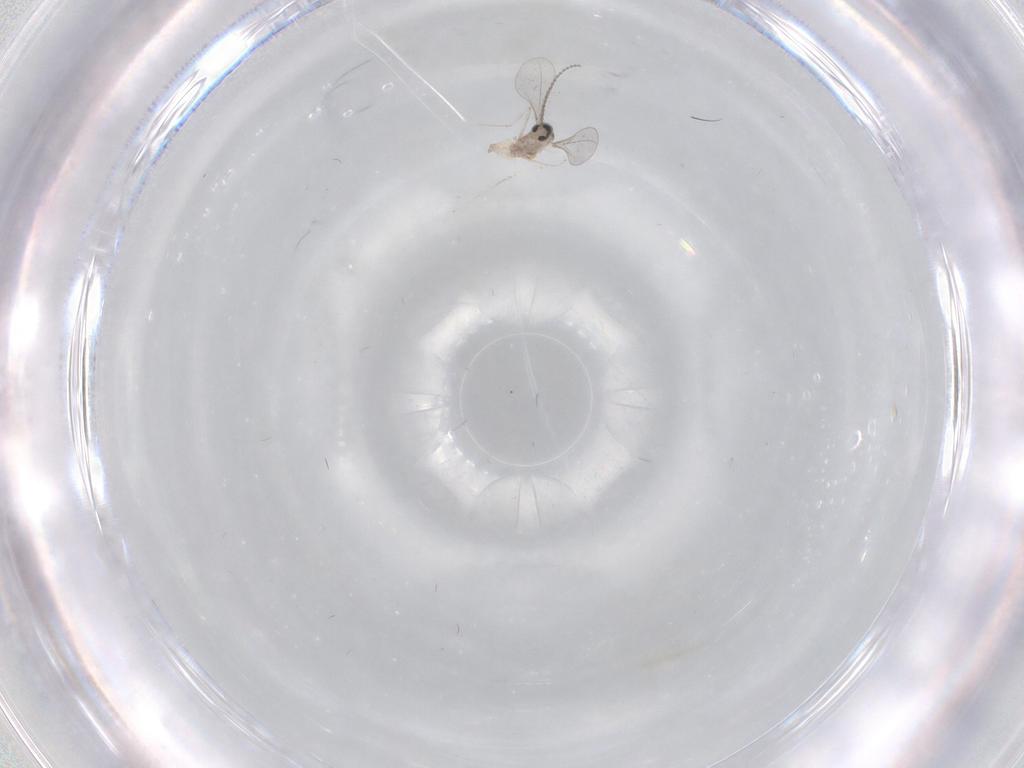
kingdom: Animalia
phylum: Arthropoda
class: Insecta
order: Diptera
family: Cecidomyiidae
